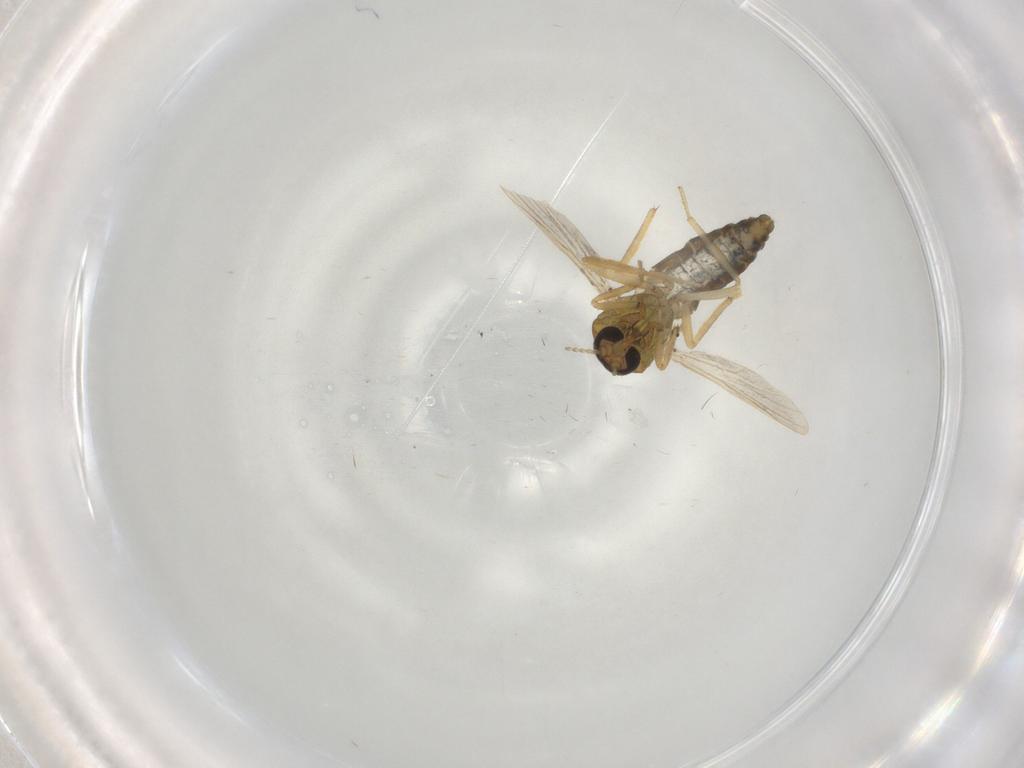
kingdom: Animalia
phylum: Arthropoda
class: Insecta
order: Diptera
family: Ceratopogonidae
